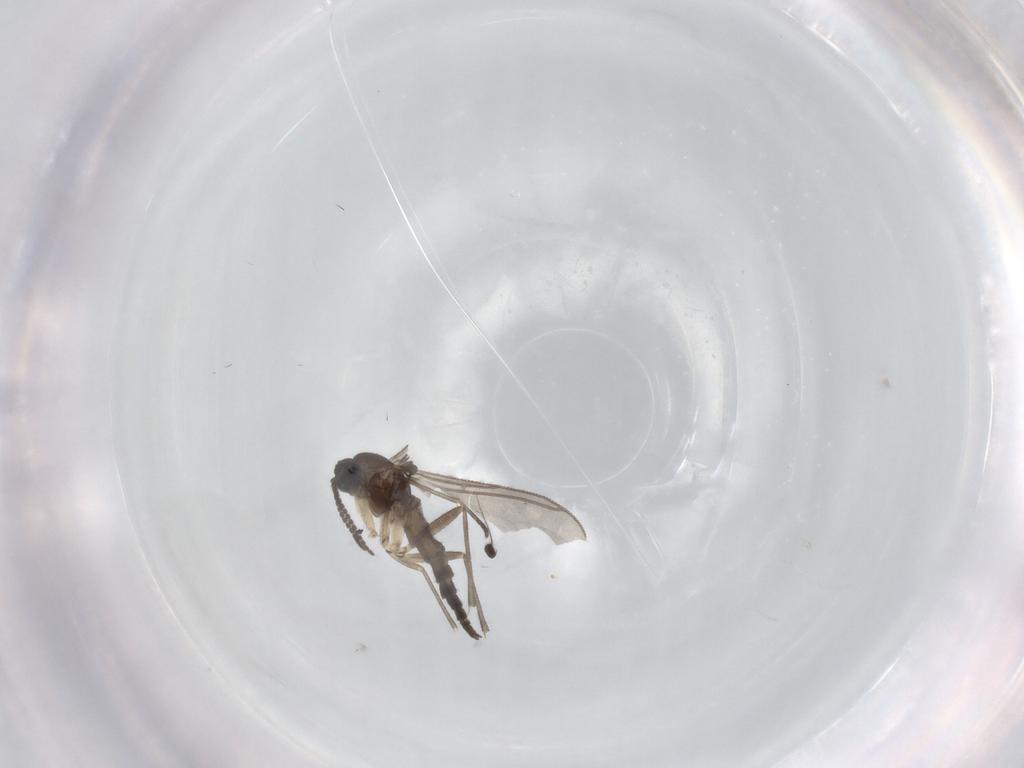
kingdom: Animalia
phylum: Arthropoda
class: Insecta
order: Diptera
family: Sciaridae
